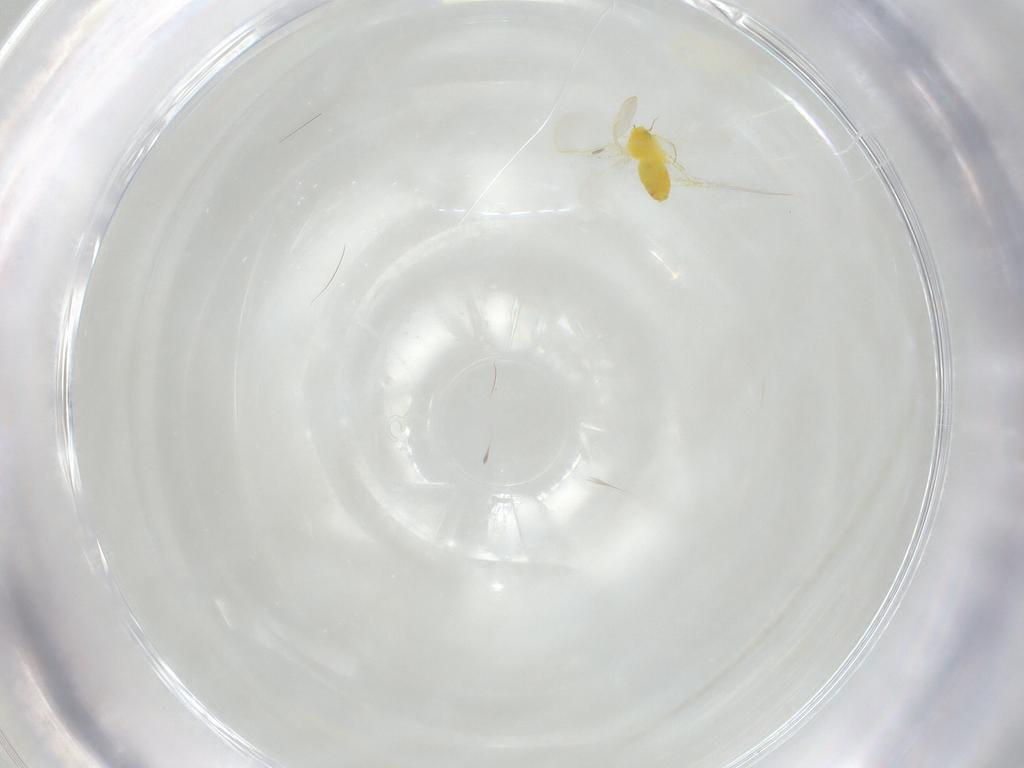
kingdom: Animalia
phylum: Arthropoda
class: Insecta
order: Hemiptera
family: Aleyrodidae
